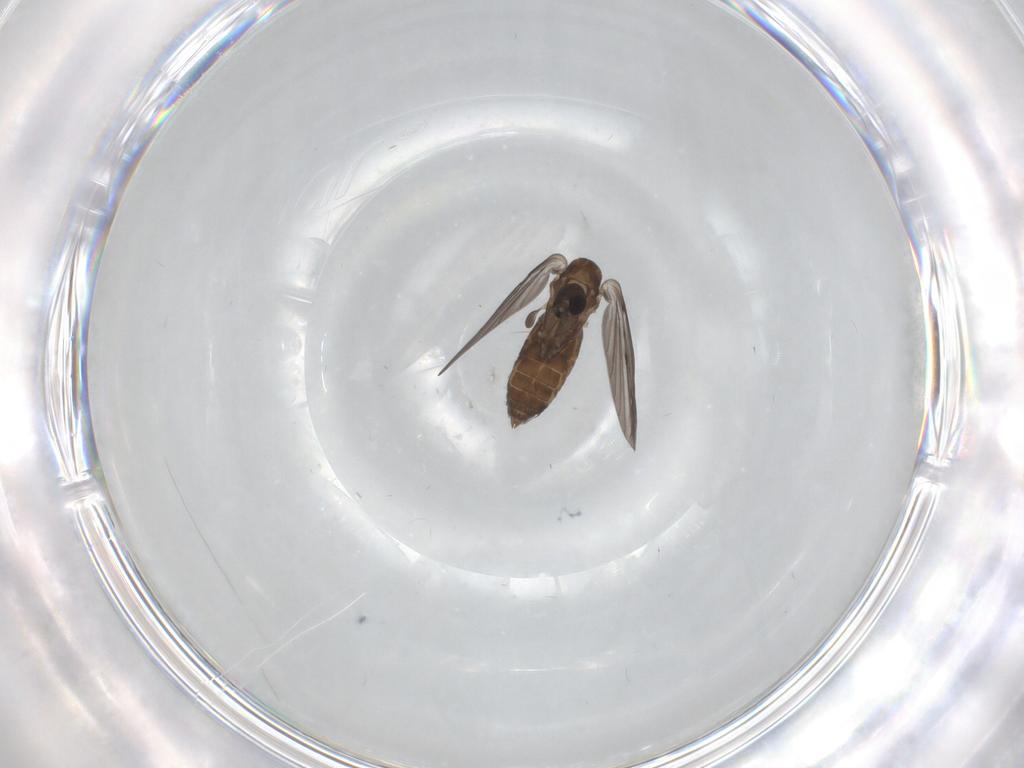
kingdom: Animalia
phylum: Arthropoda
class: Insecta
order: Diptera
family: Psychodidae
